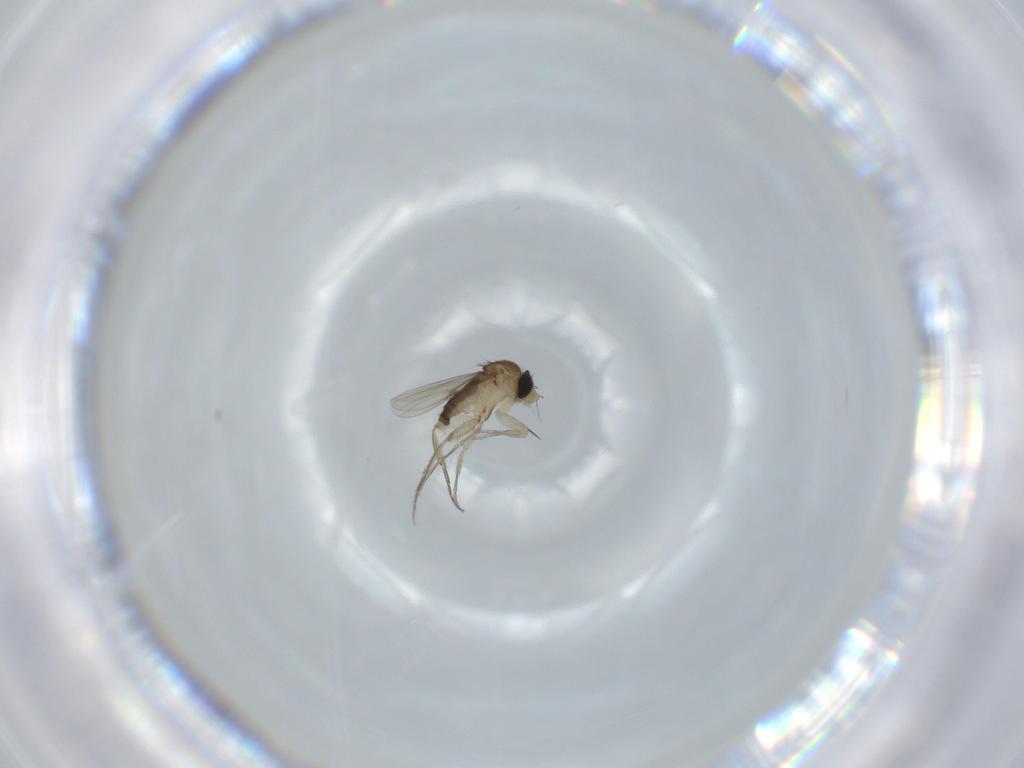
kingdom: Animalia
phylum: Arthropoda
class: Insecta
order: Diptera
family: Phoridae
